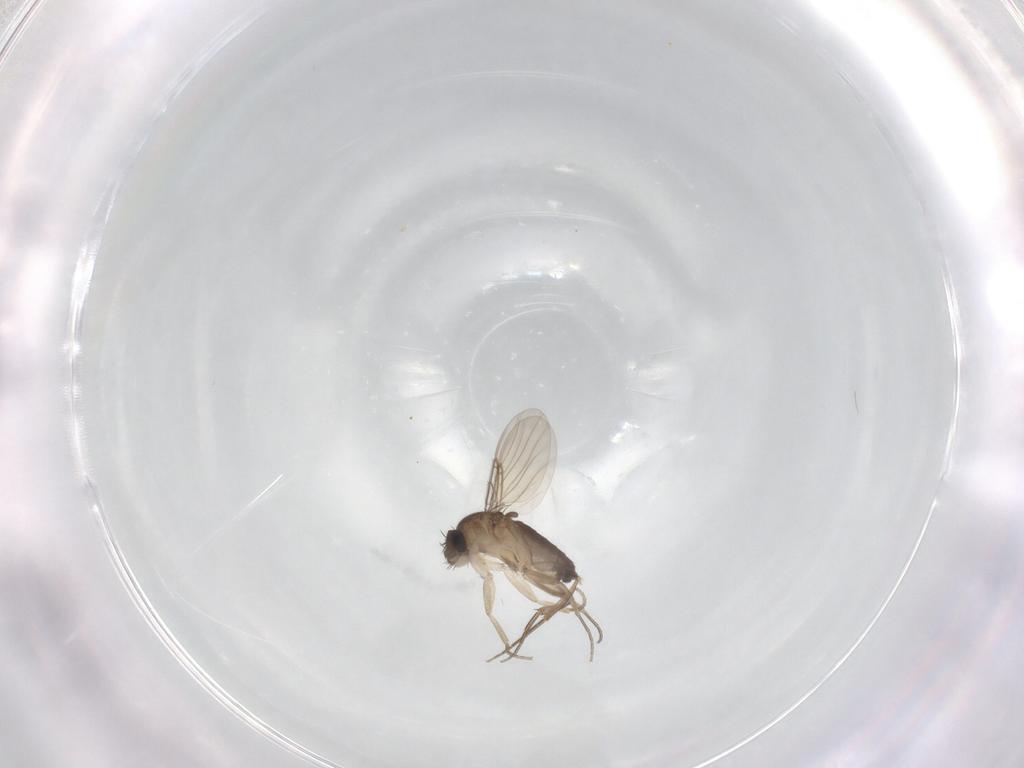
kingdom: Animalia
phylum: Arthropoda
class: Insecta
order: Diptera
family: Phoridae
